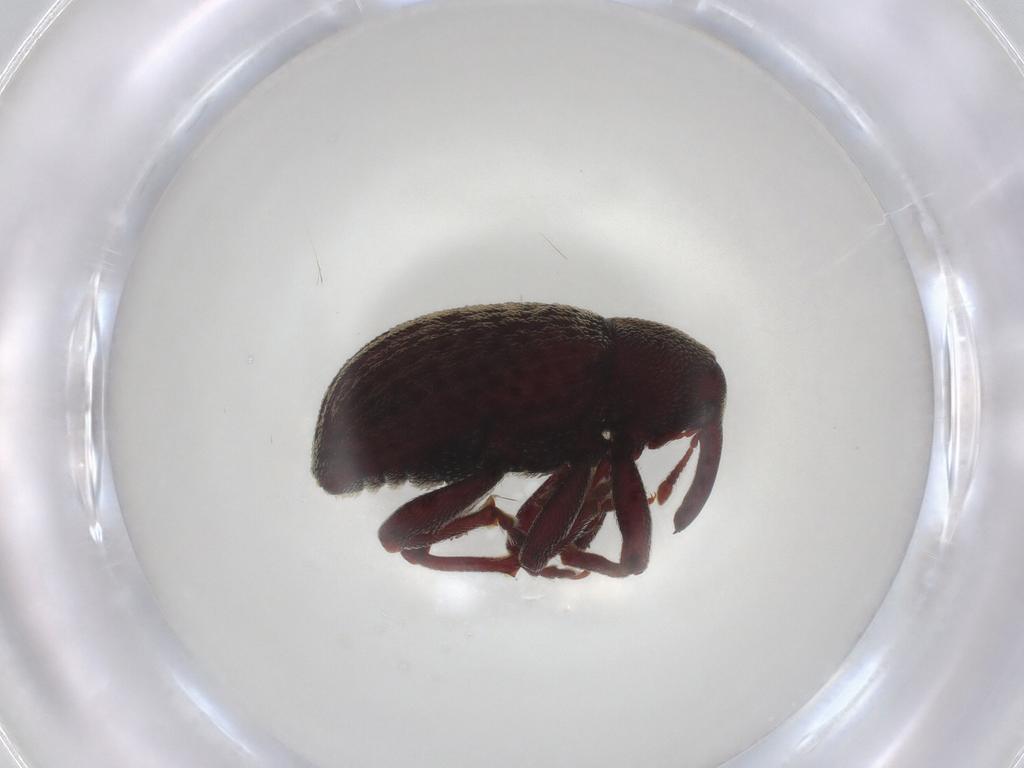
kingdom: Animalia
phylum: Arthropoda
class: Insecta
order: Coleoptera
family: Curculionidae
